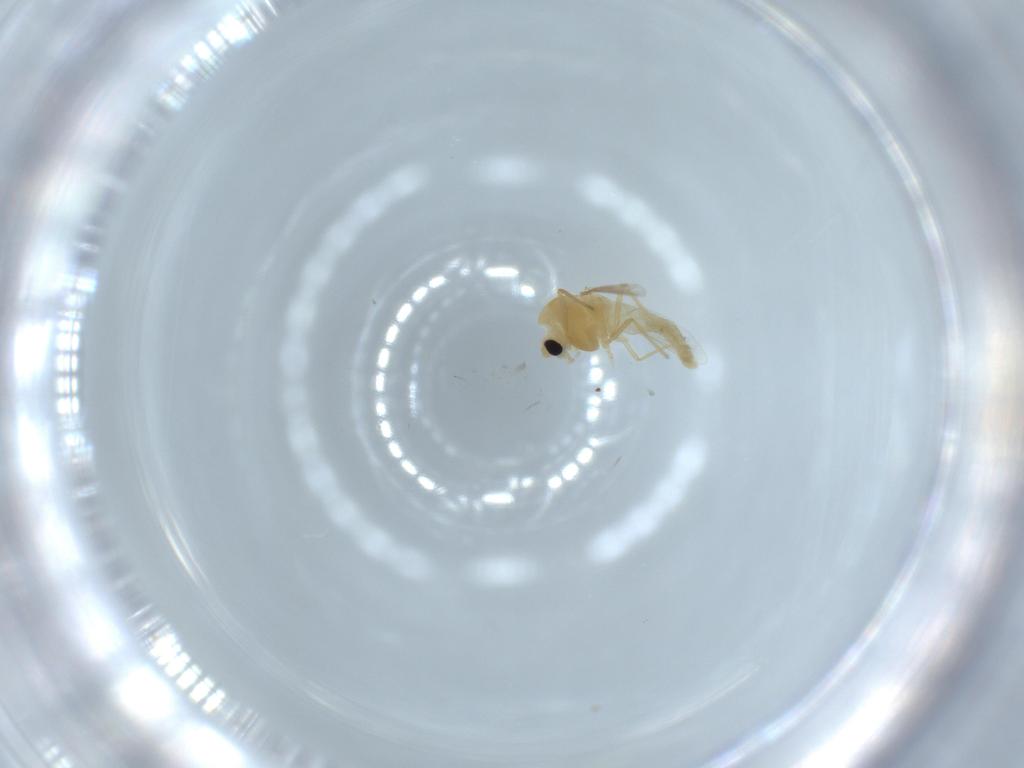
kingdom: Animalia
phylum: Arthropoda
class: Insecta
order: Diptera
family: Chironomidae
